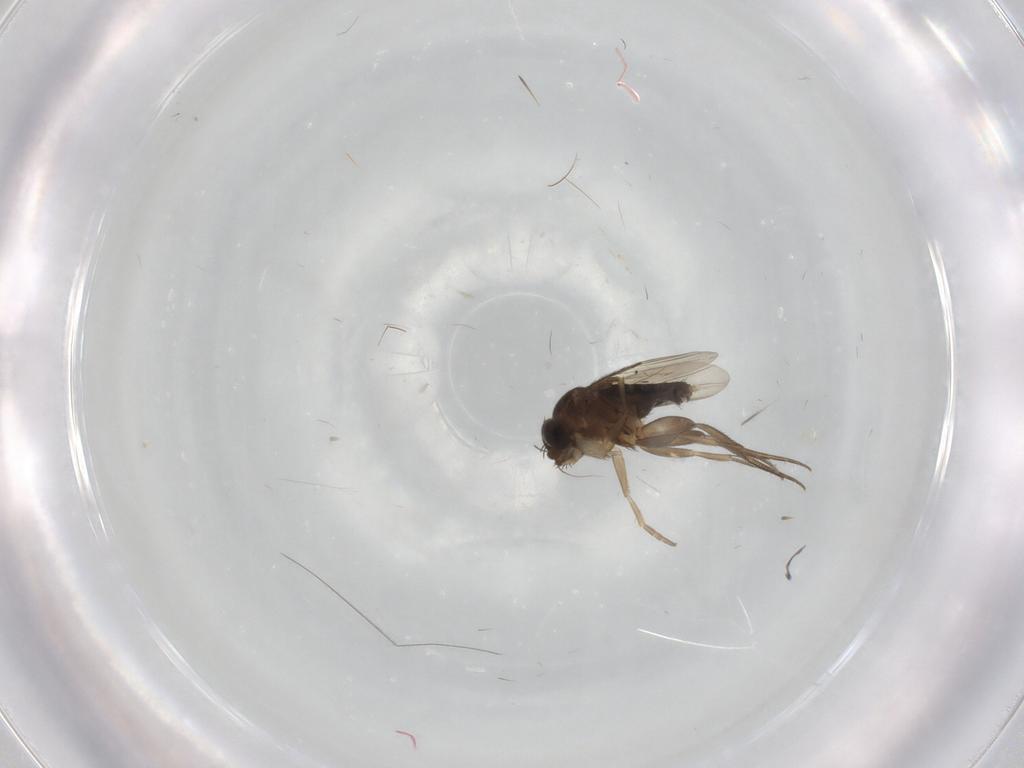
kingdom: Animalia
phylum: Arthropoda
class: Insecta
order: Diptera
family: Phoridae
